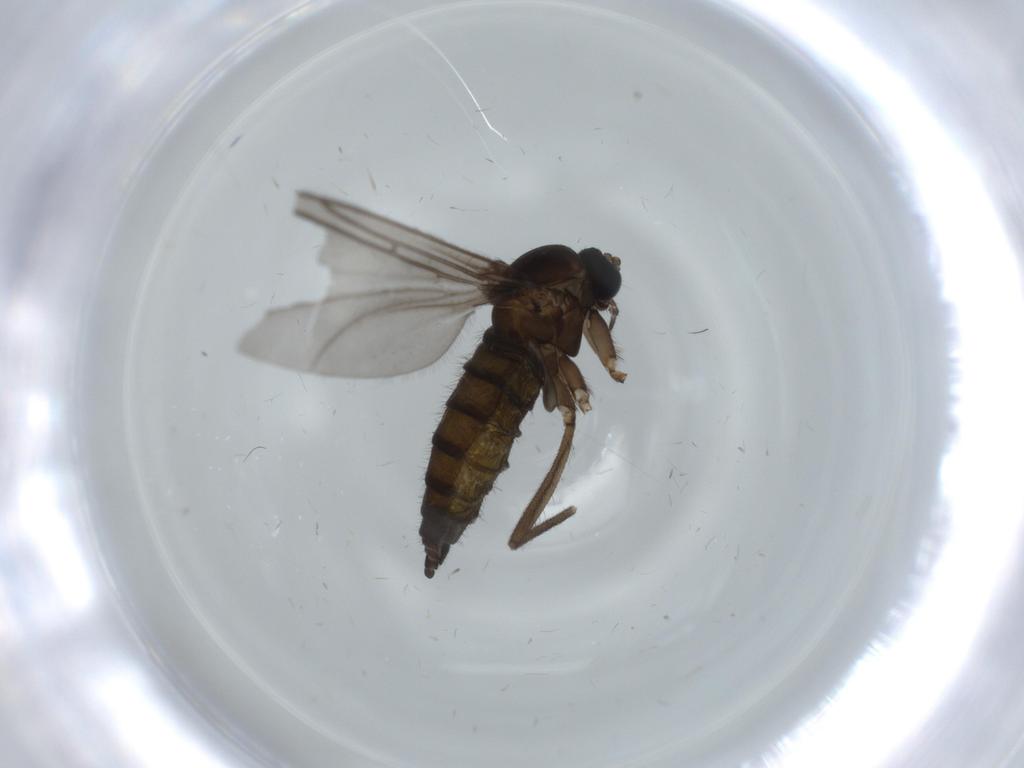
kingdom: Animalia
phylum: Arthropoda
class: Insecta
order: Diptera
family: Sciaridae
